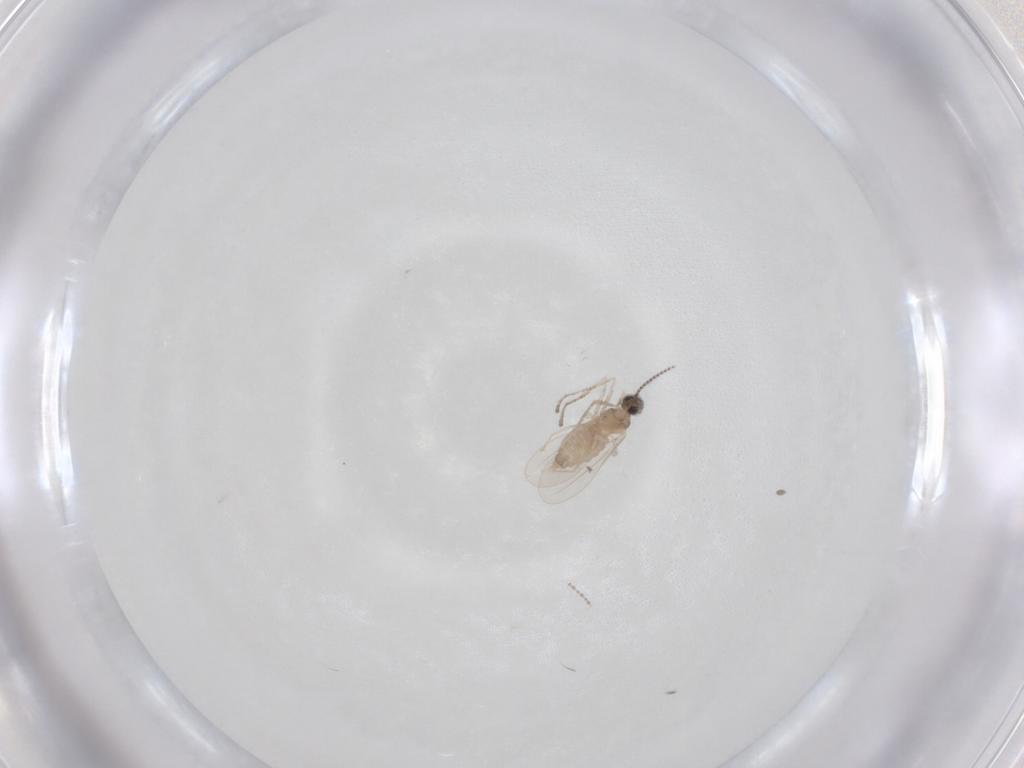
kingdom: Animalia
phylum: Arthropoda
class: Insecta
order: Diptera
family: Cecidomyiidae
